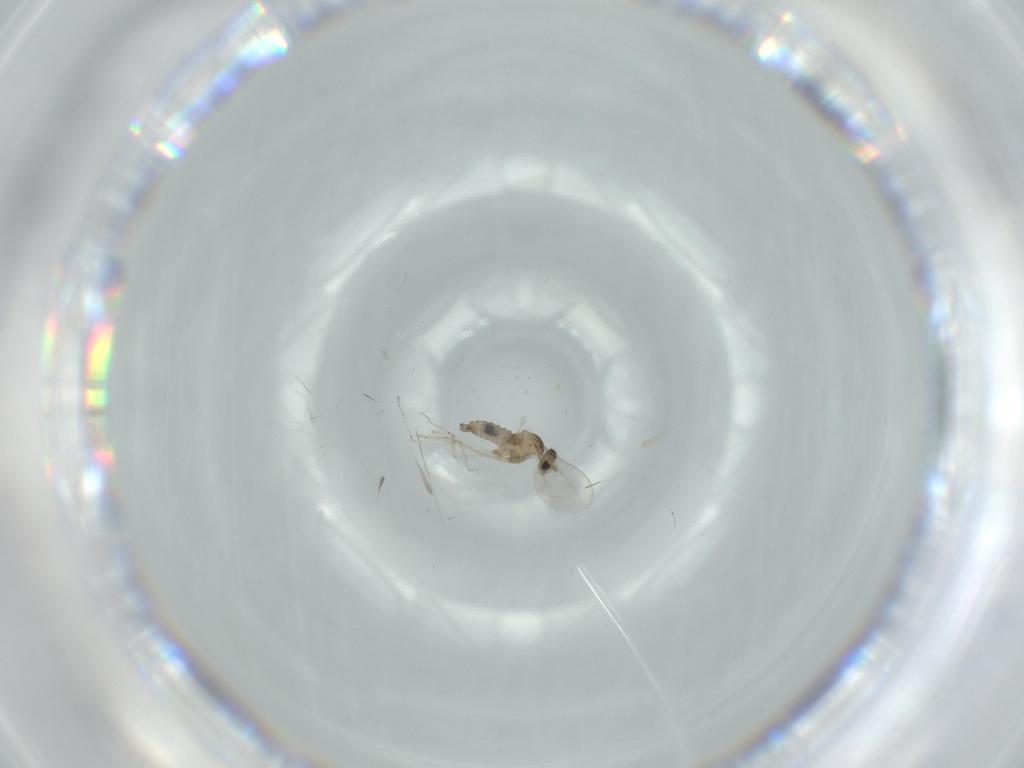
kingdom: Animalia
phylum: Arthropoda
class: Insecta
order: Diptera
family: Cecidomyiidae
